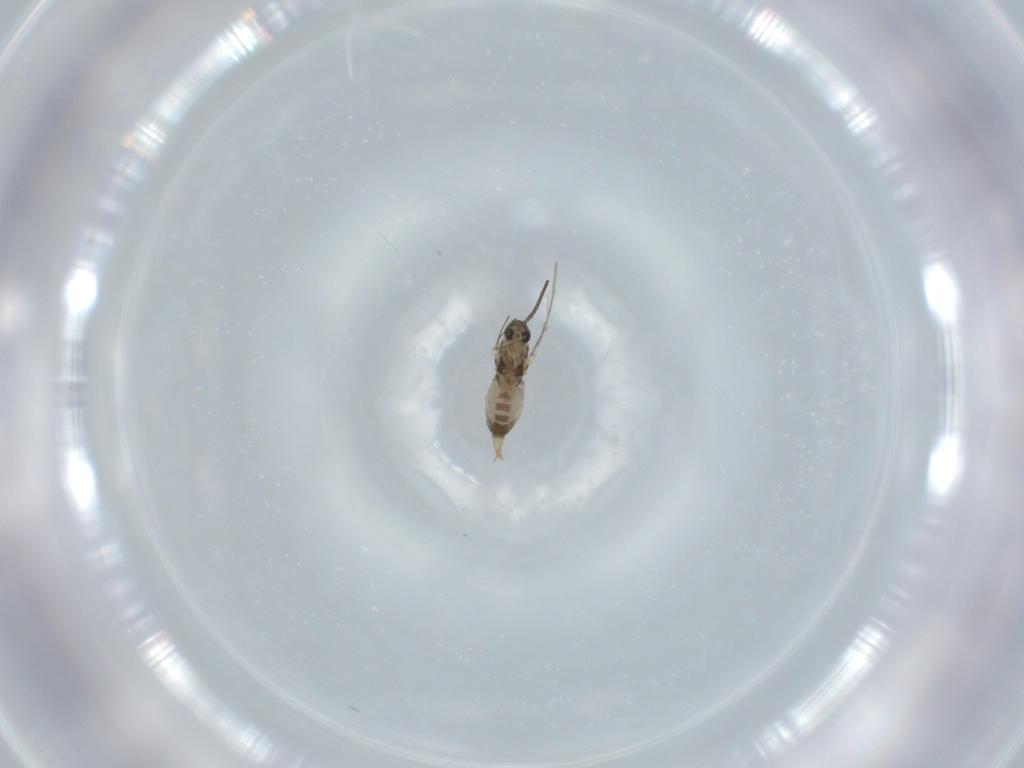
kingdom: Animalia
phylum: Arthropoda
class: Insecta
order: Diptera
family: Cecidomyiidae
